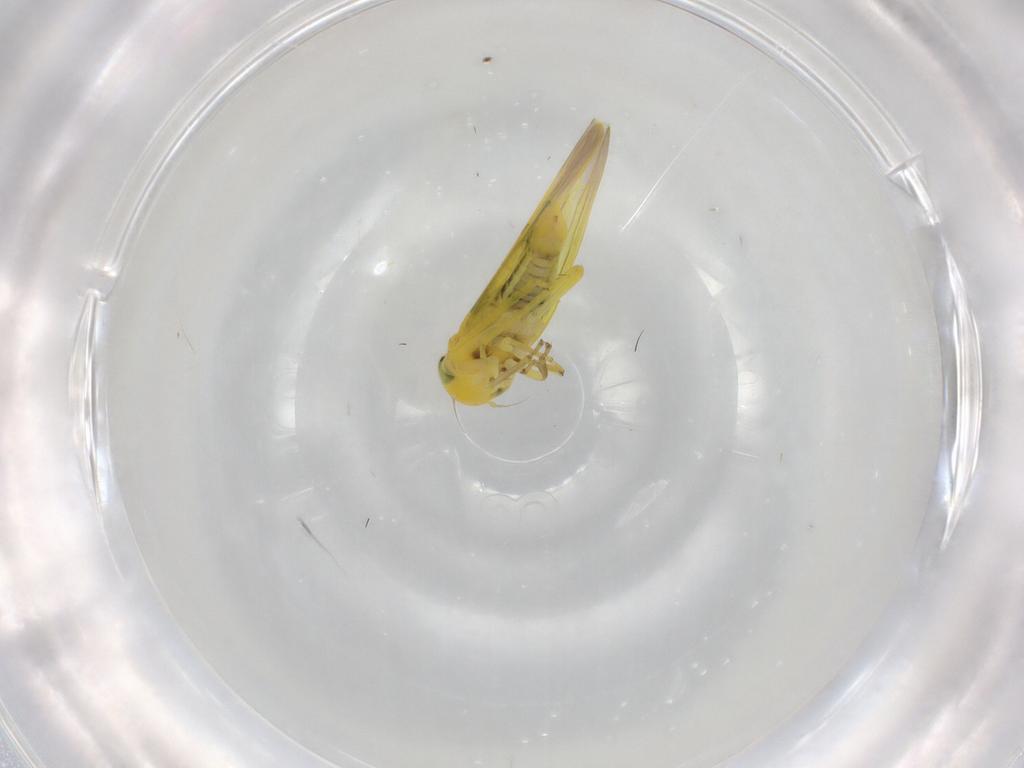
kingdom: Animalia
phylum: Arthropoda
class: Insecta
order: Hemiptera
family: Cicadellidae
